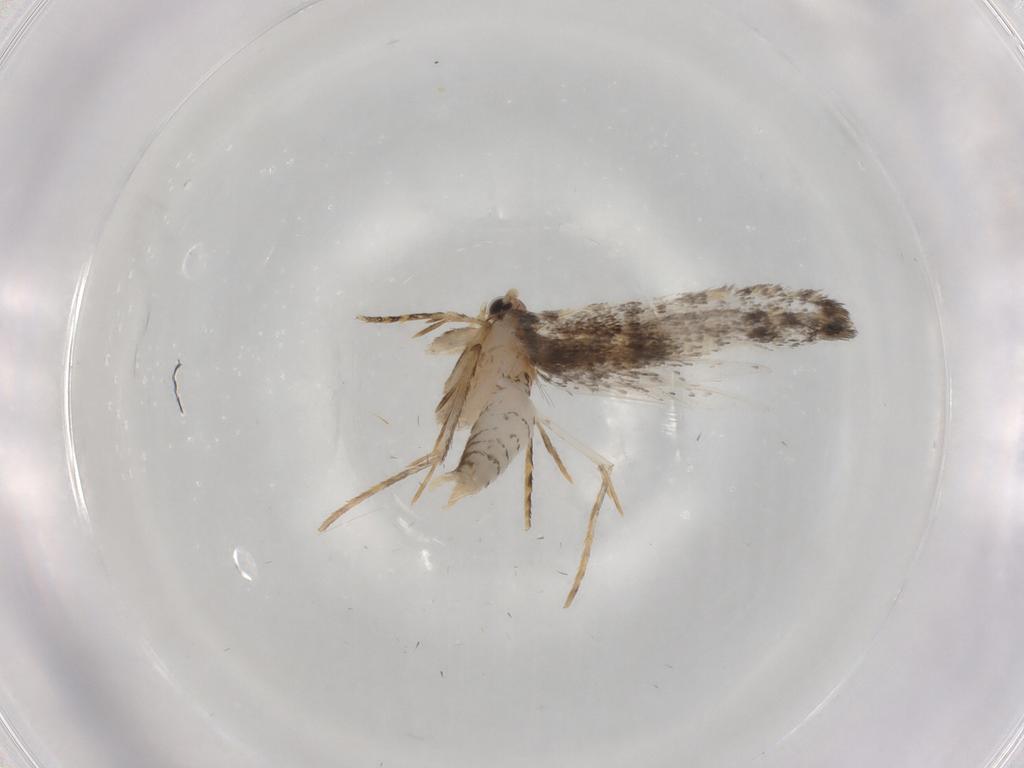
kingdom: Animalia
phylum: Arthropoda
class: Insecta
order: Lepidoptera
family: Tineidae
